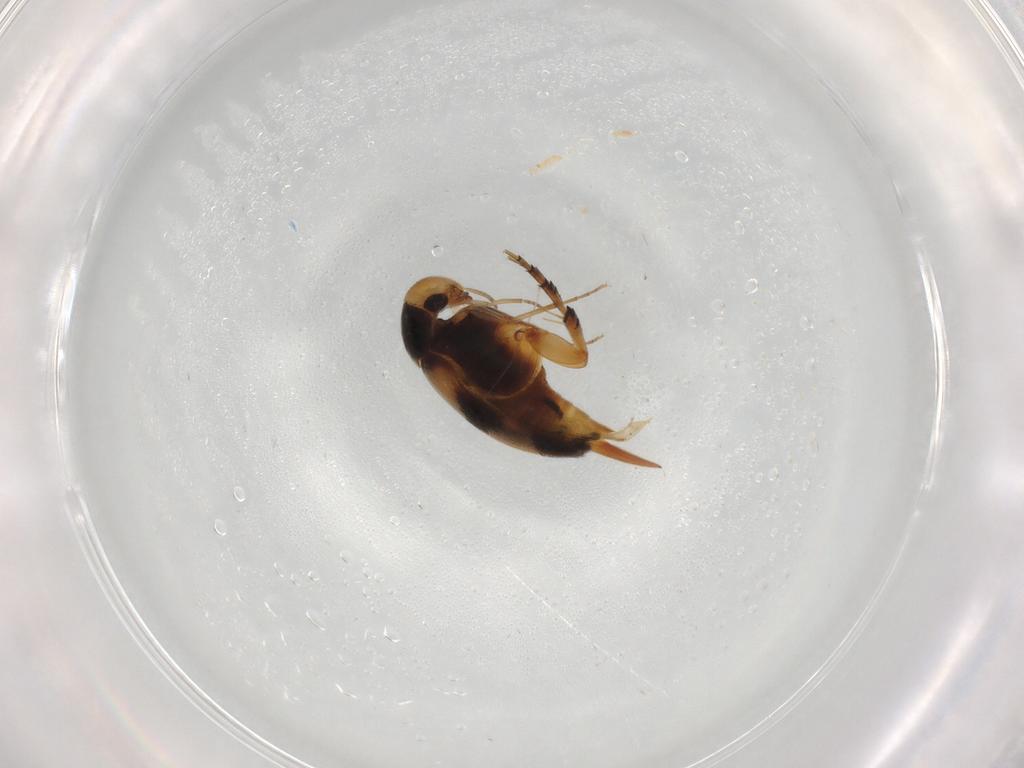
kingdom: Animalia
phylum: Arthropoda
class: Insecta
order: Coleoptera
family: Mordellidae
